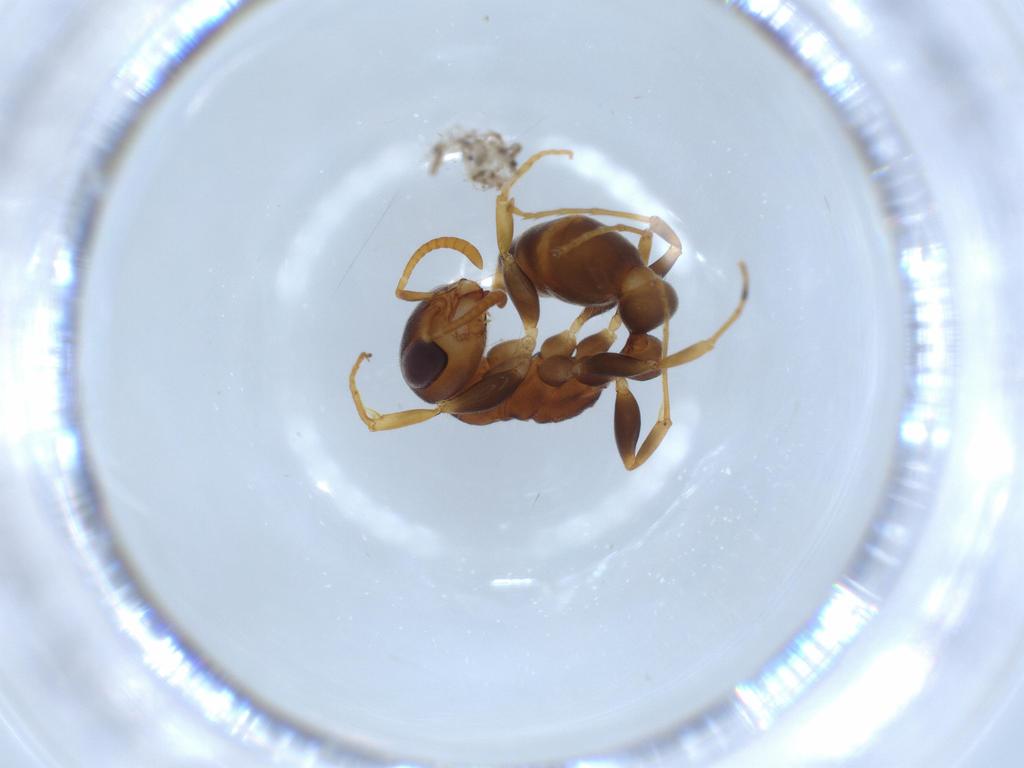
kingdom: Animalia
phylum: Arthropoda
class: Insecta
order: Hymenoptera
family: Formicidae
